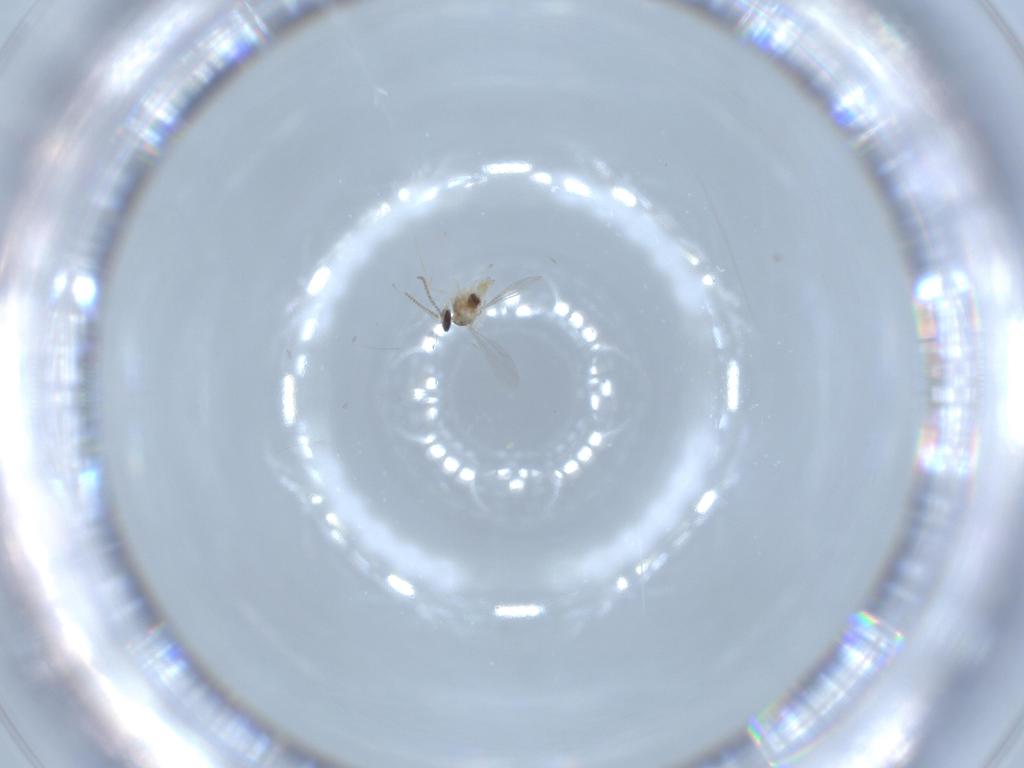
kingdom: Animalia
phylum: Arthropoda
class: Insecta
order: Diptera
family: Cecidomyiidae
